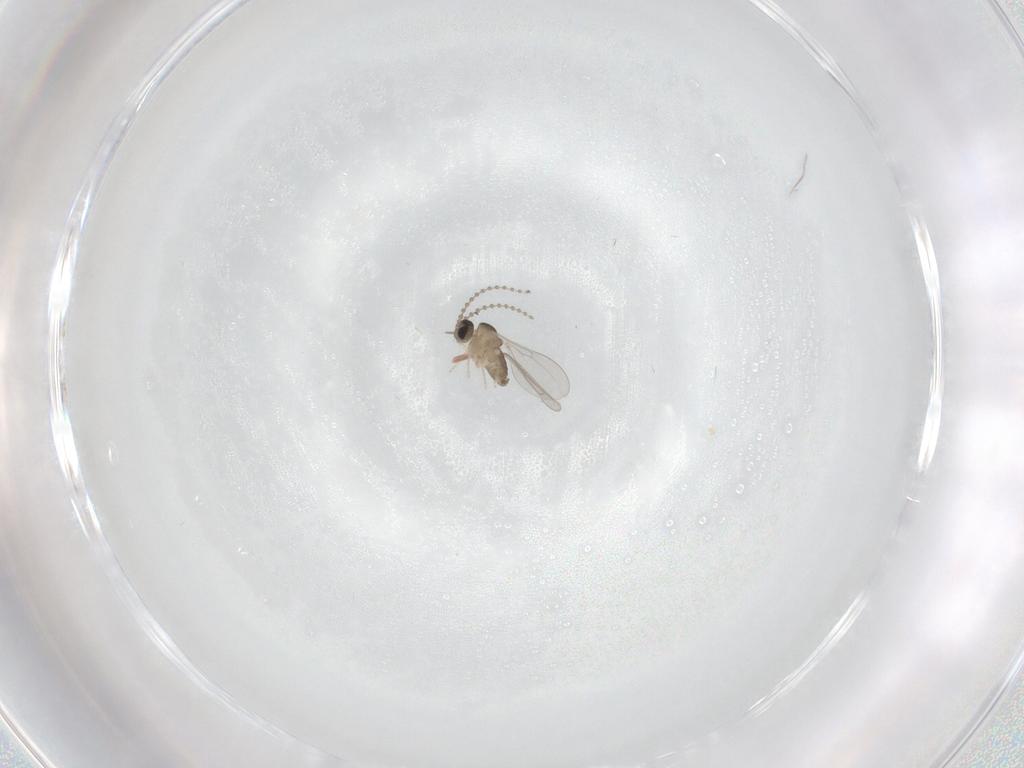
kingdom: Animalia
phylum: Arthropoda
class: Insecta
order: Diptera
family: Cecidomyiidae
